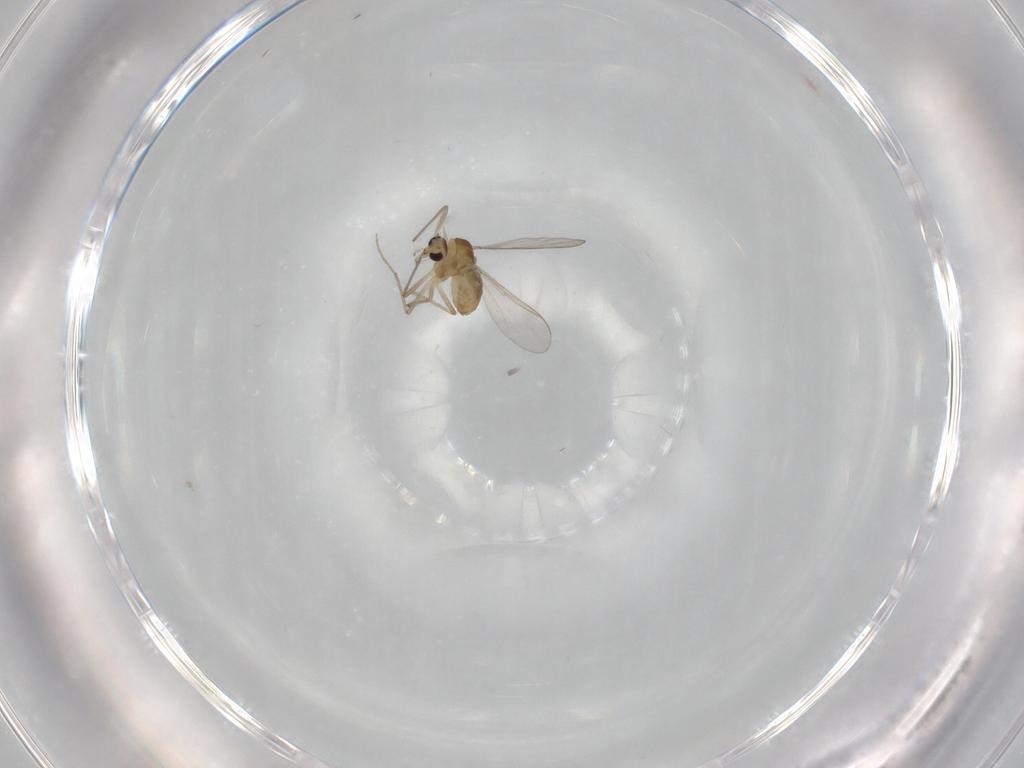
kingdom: Animalia
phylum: Arthropoda
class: Insecta
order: Diptera
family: Chironomidae
